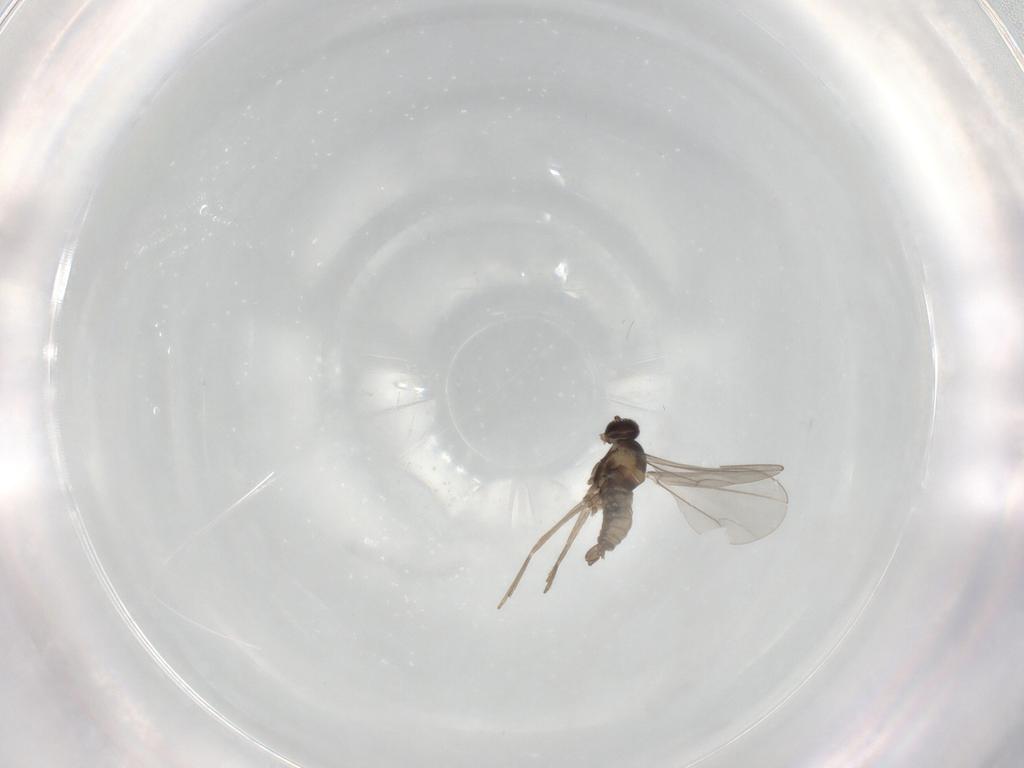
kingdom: Animalia
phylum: Arthropoda
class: Insecta
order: Diptera
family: Cecidomyiidae
